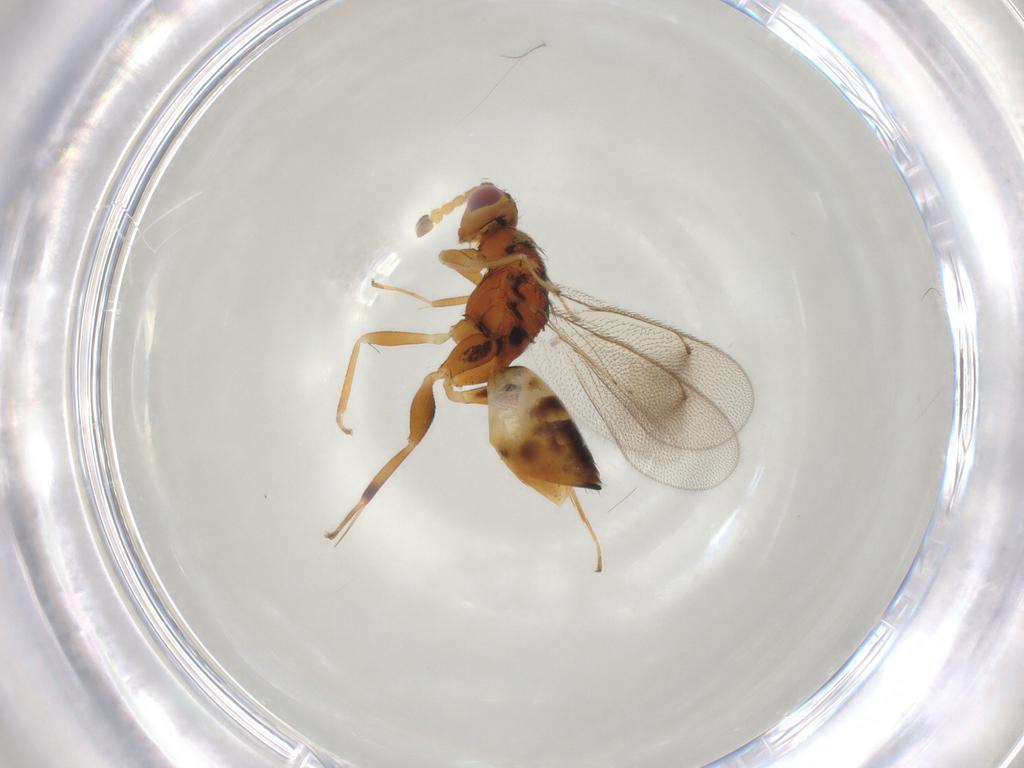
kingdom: Animalia
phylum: Arthropoda
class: Insecta
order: Hymenoptera
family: Eulophidae
